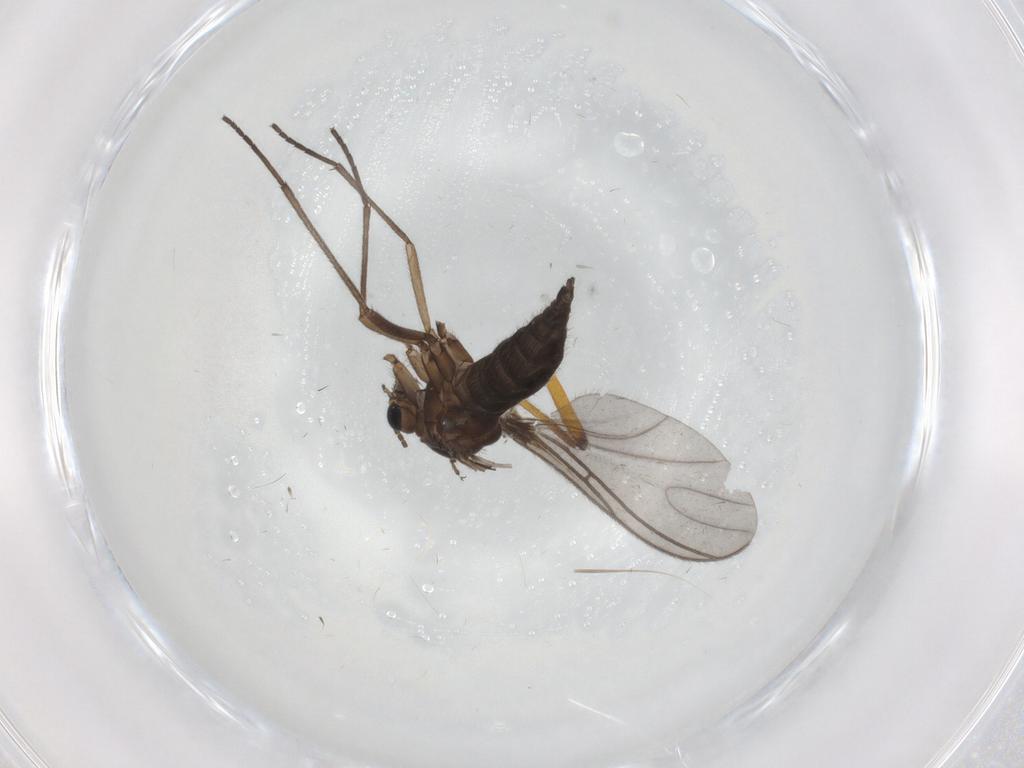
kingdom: Animalia
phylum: Arthropoda
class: Insecta
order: Diptera
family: Sciaridae
